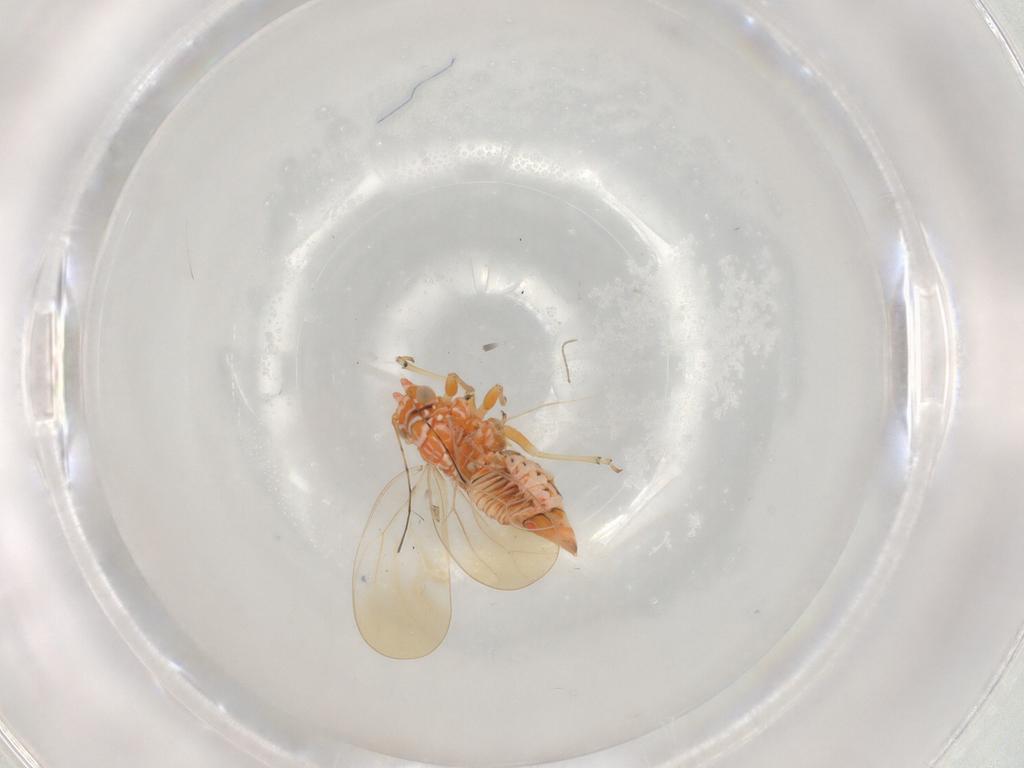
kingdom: Animalia
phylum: Arthropoda
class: Insecta
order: Hemiptera
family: Psyllidae
